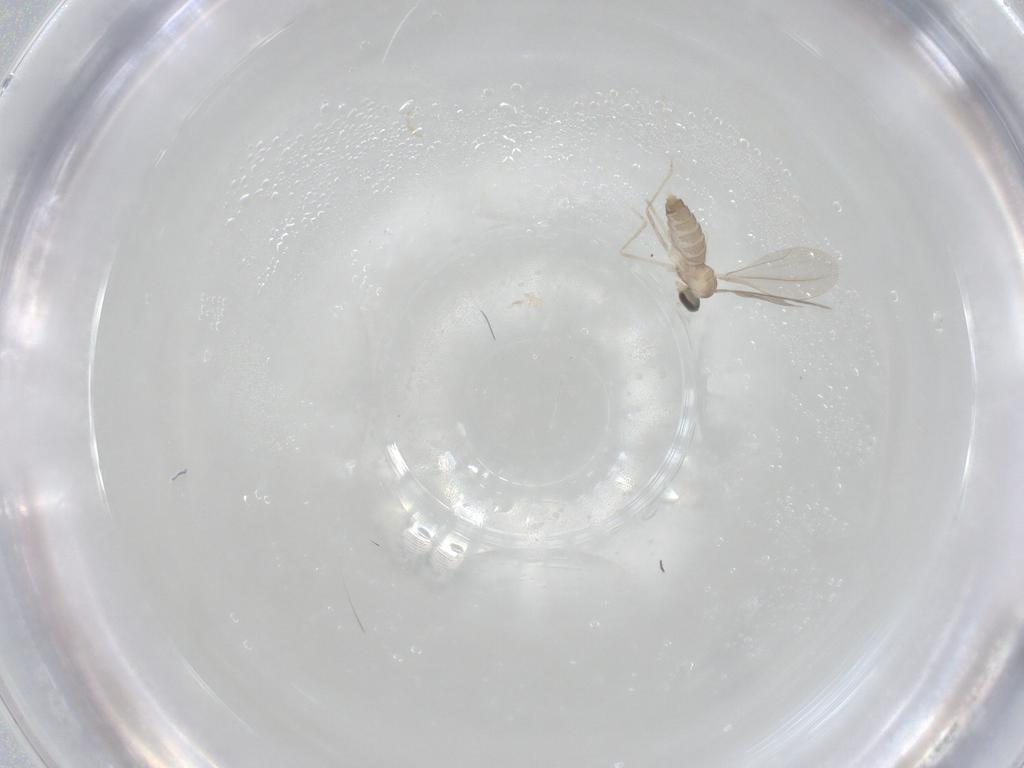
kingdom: Animalia
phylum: Arthropoda
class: Insecta
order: Diptera
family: Cecidomyiidae
